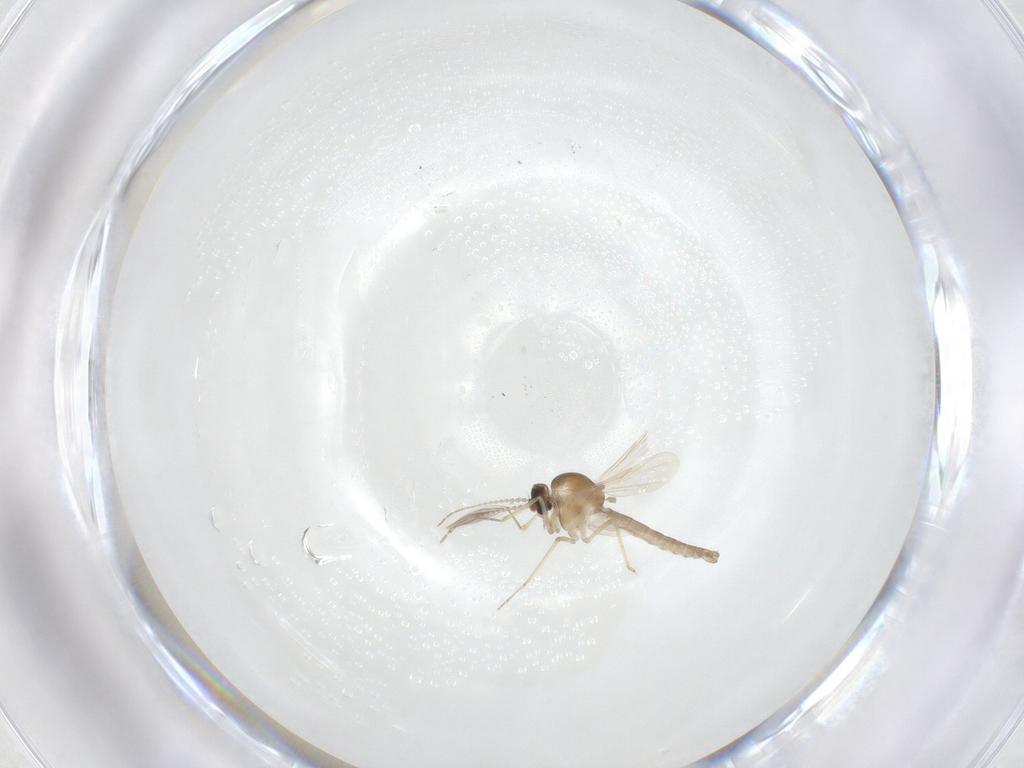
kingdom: Animalia
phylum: Arthropoda
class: Insecta
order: Diptera
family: Ceratopogonidae
